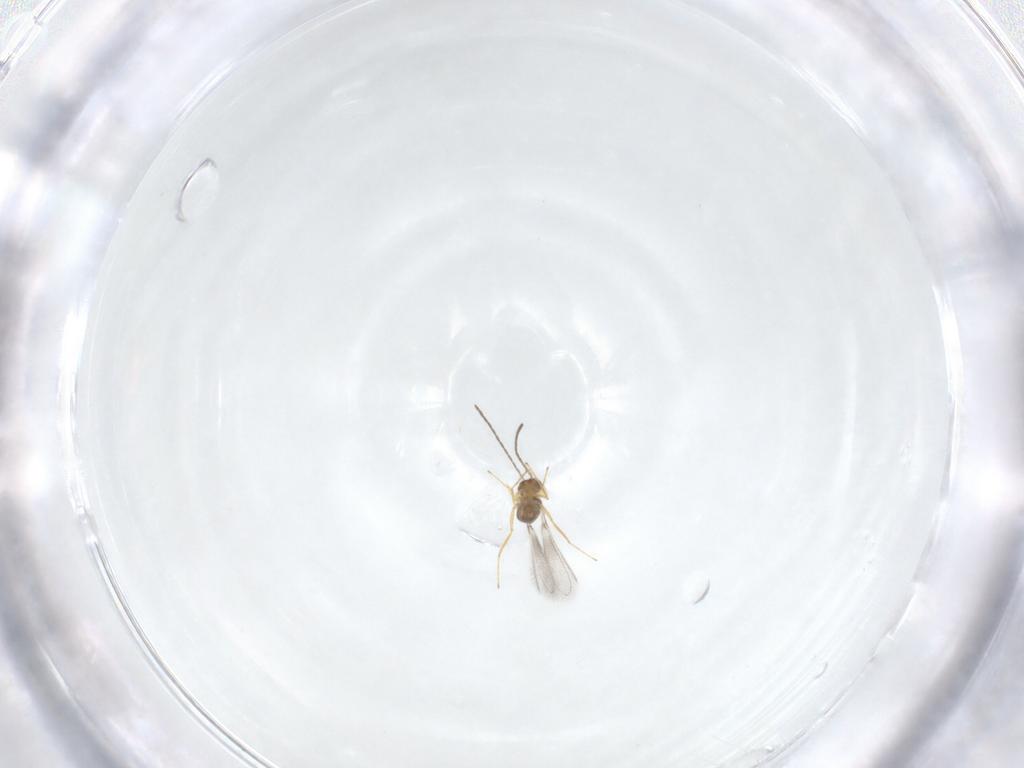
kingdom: Animalia
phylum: Arthropoda
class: Insecta
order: Hymenoptera
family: Mymaridae
